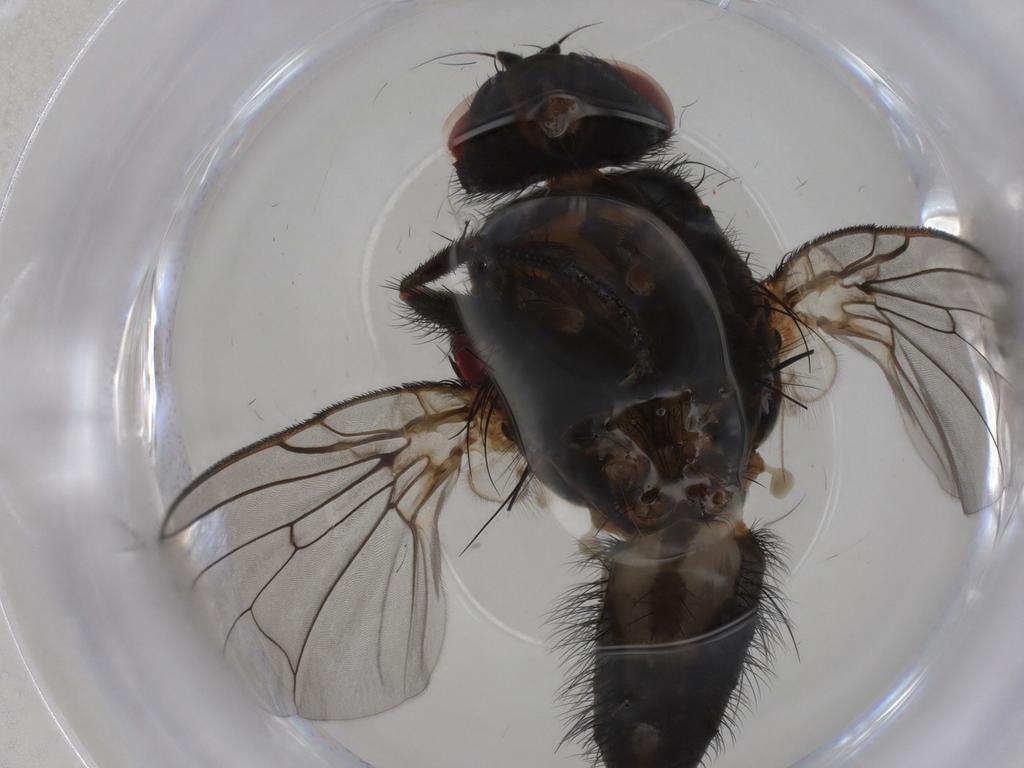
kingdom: Animalia
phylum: Arthropoda
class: Insecta
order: Diptera
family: Anthomyiidae
